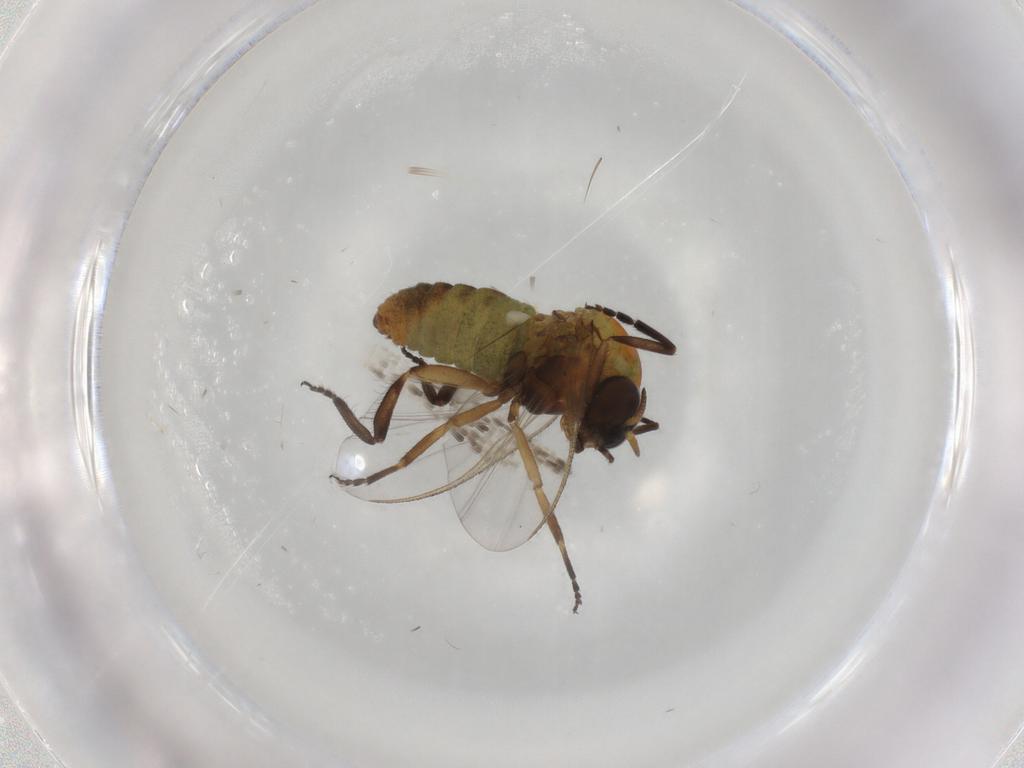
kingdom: Animalia
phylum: Arthropoda
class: Insecta
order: Diptera
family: Simuliidae
